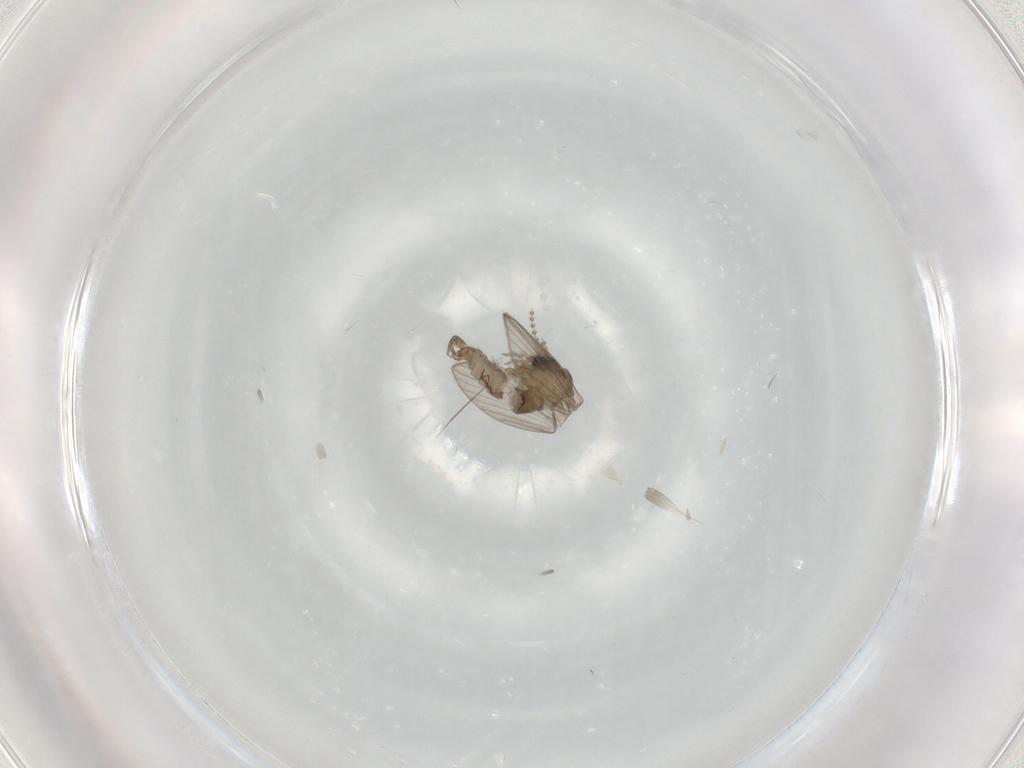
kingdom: Animalia
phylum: Arthropoda
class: Insecta
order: Diptera
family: Psychodidae
